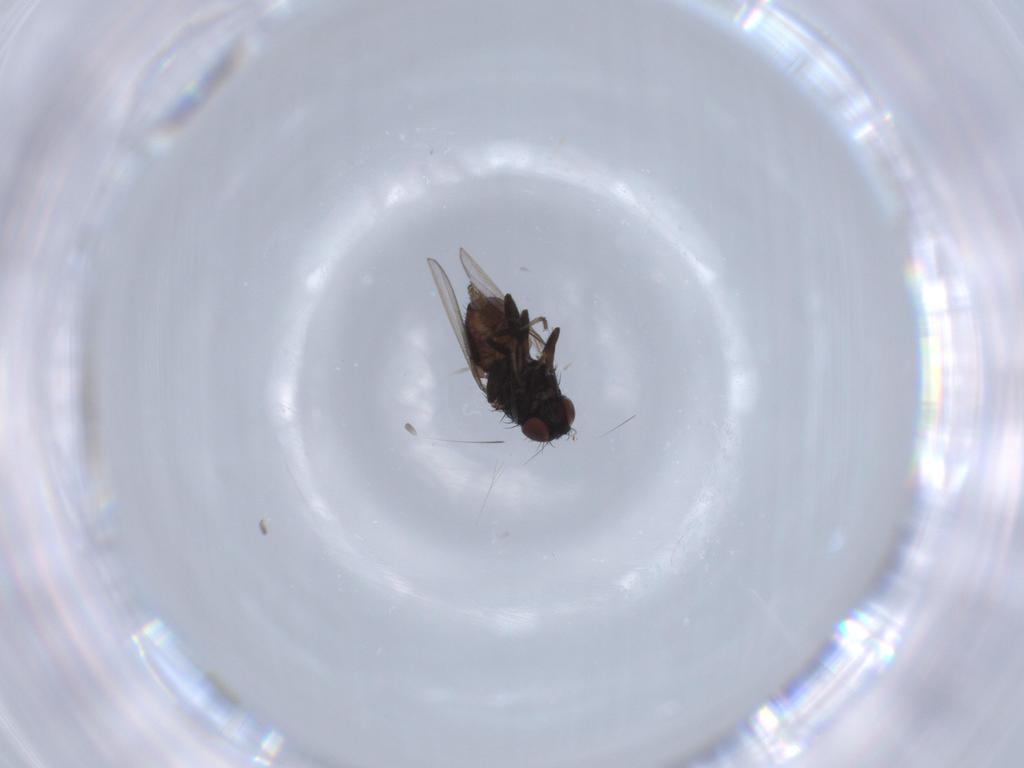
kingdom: Animalia
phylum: Arthropoda
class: Insecta
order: Diptera
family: Milichiidae
